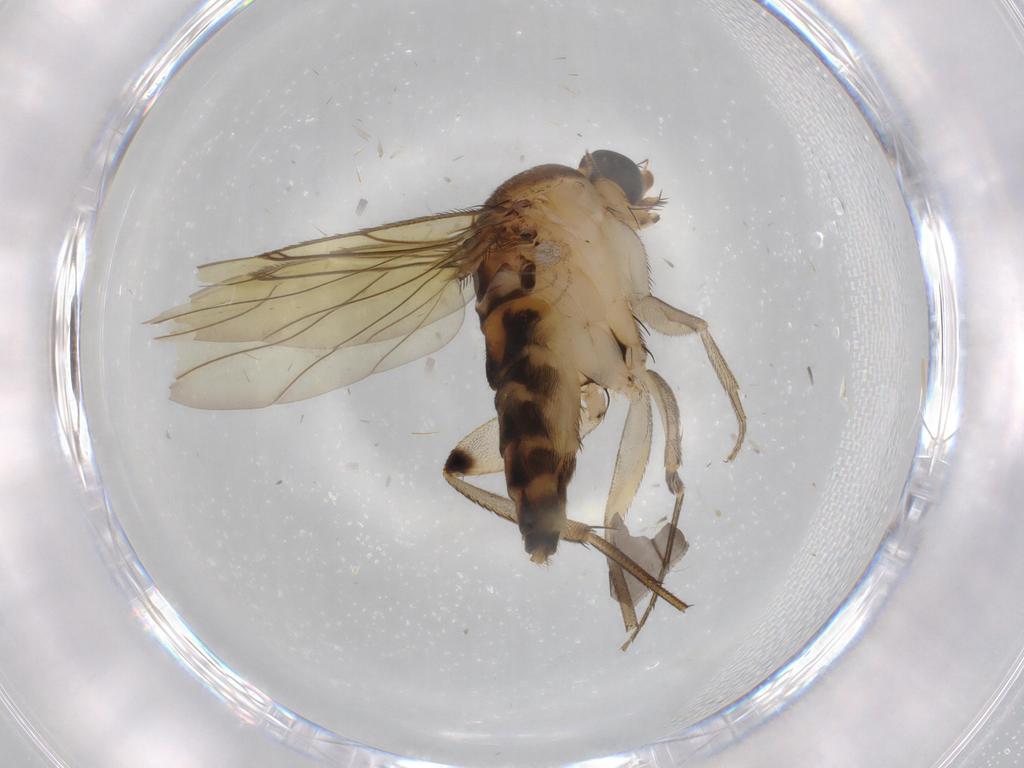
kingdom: Animalia
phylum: Arthropoda
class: Insecta
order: Diptera
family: Phoridae
